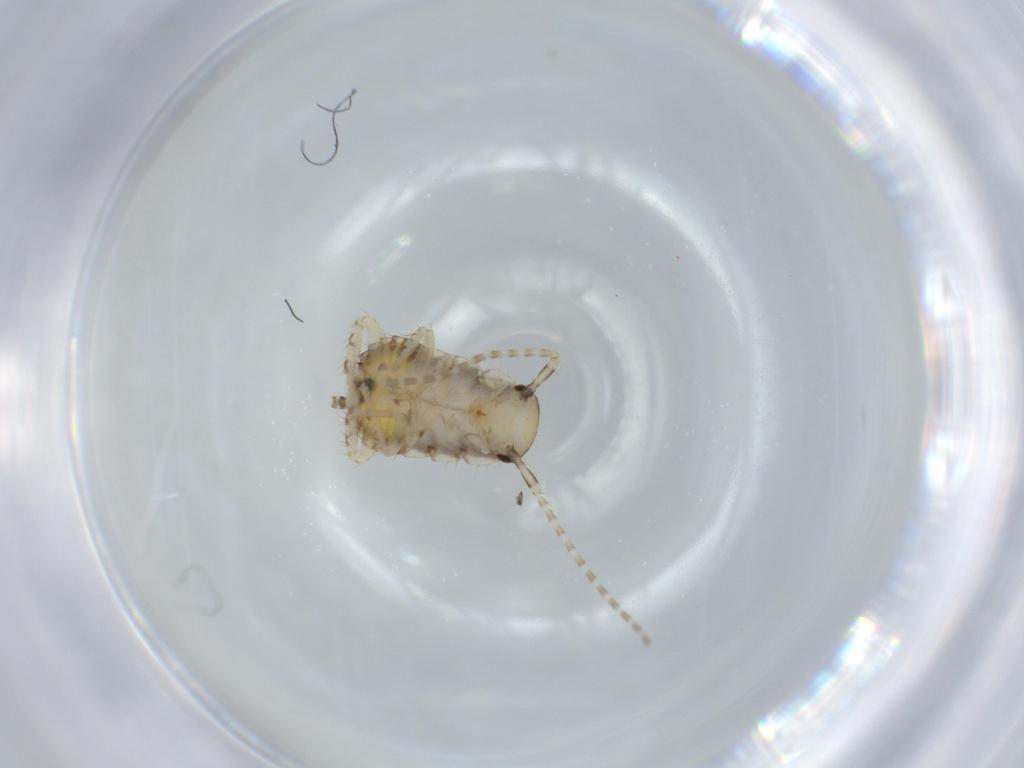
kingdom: Animalia
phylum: Arthropoda
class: Insecta
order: Blattodea
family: Ectobiidae
